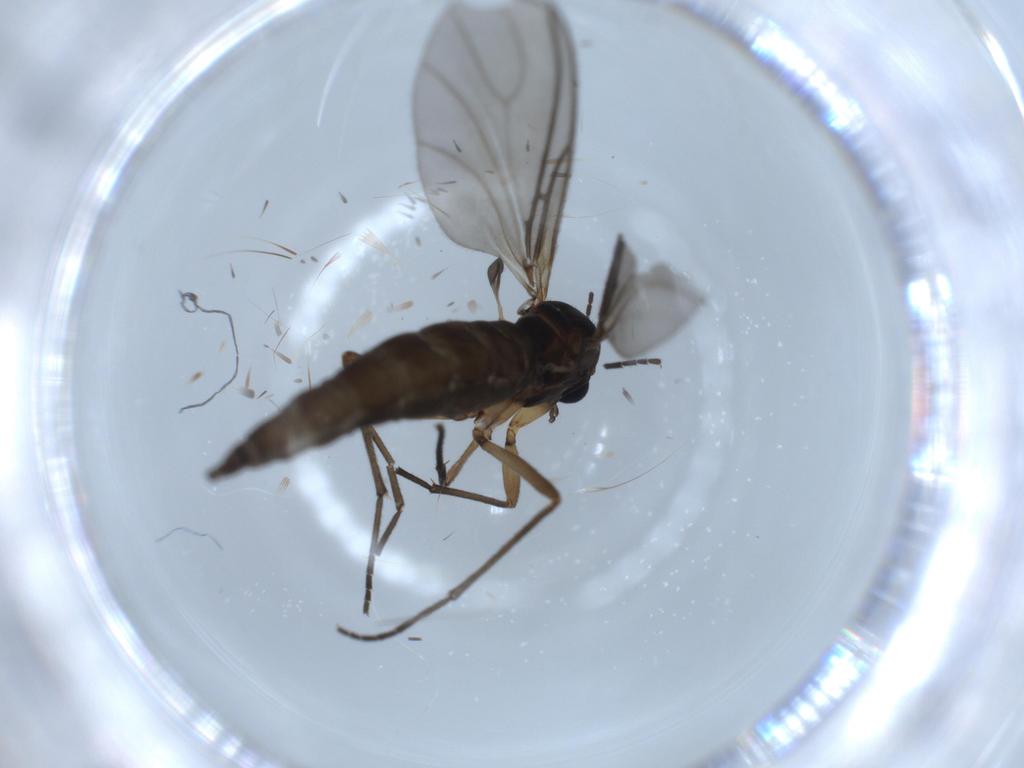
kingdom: Animalia
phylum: Arthropoda
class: Insecta
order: Diptera
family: Sciaridae
